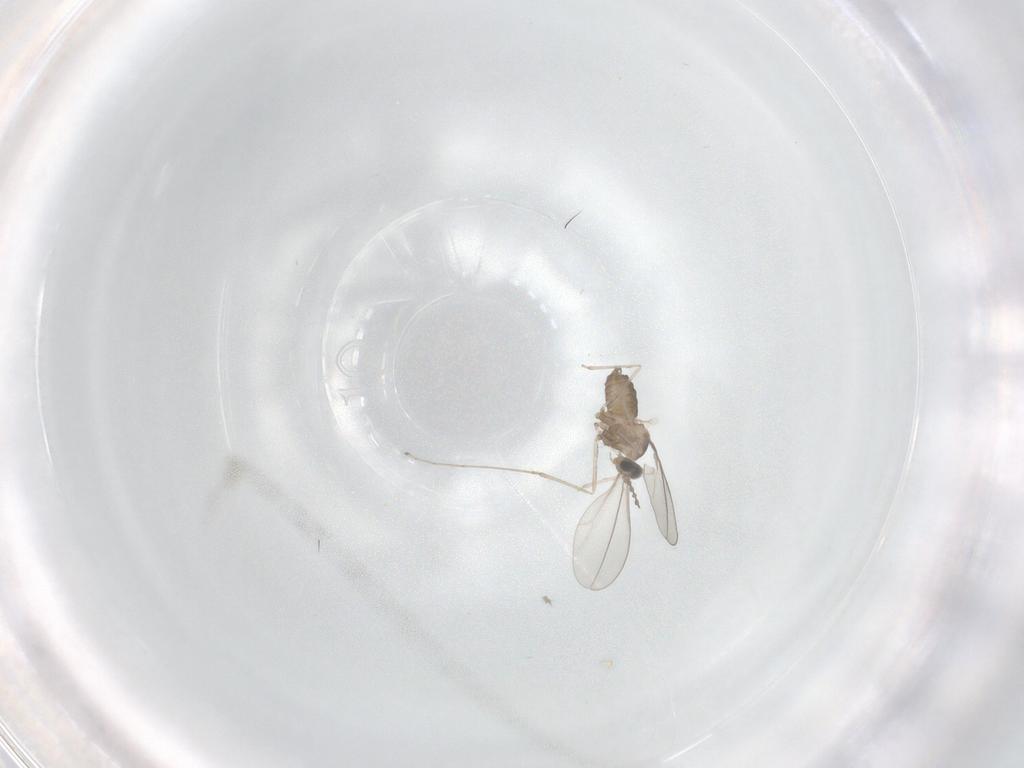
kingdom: Animalia
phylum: Arthropoda
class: Insecta
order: Diptera
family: Cecidomyiidae
